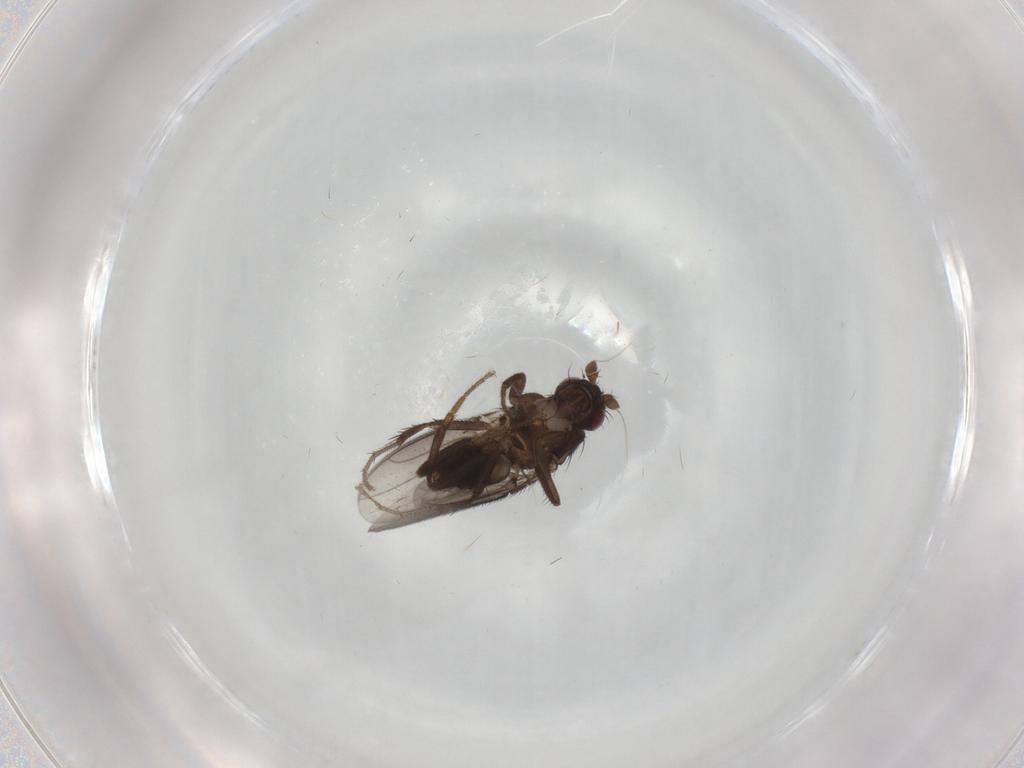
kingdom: Animalia
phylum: Arthropoda
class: Insecta
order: Diptera
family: Sphaeroceridae
